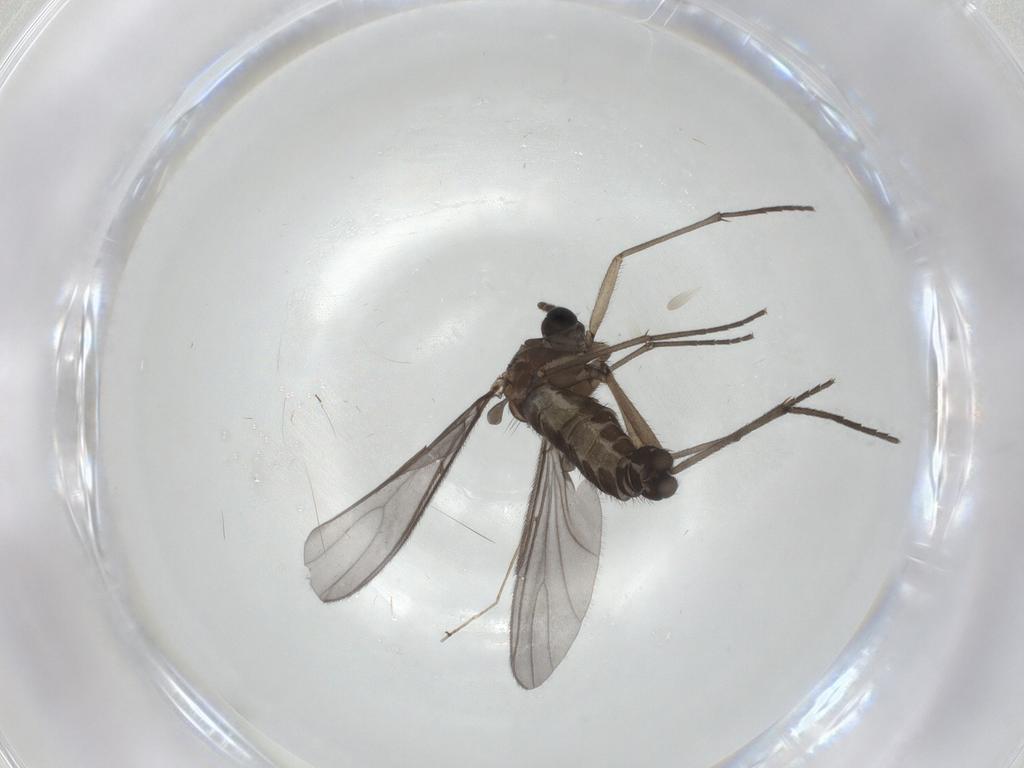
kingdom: Animalia
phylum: Arthropoda
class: Insecta
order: Diptera
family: Sciaridae
